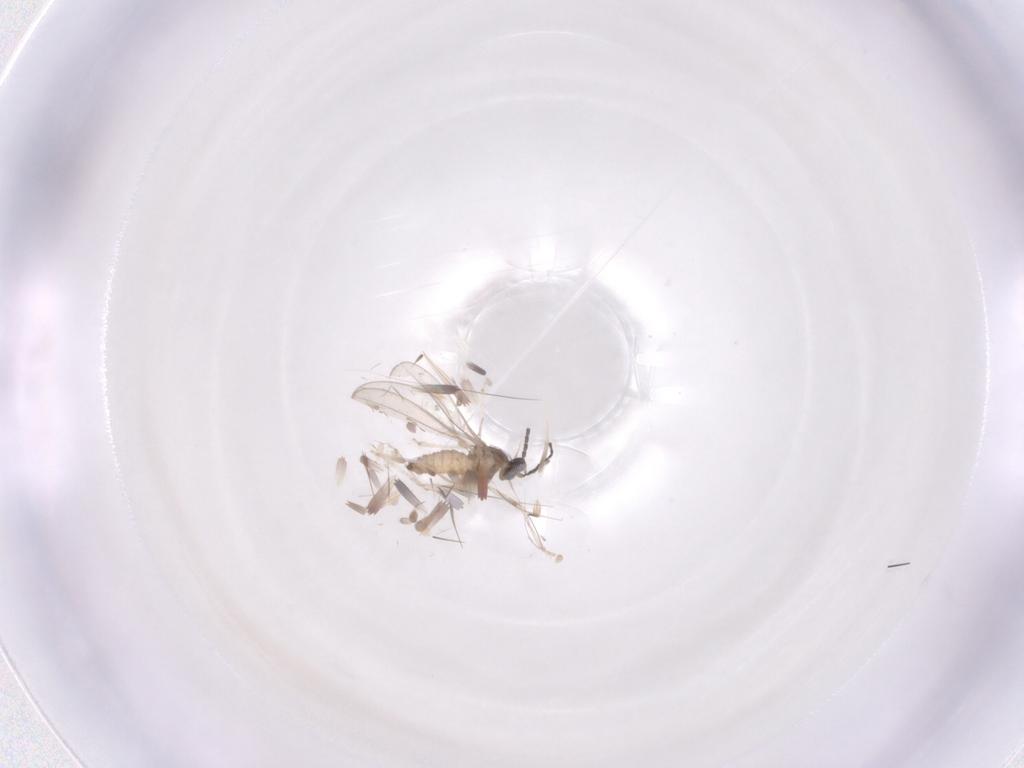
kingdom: Animalia
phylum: Arthropoda
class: Insecta
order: Diptera
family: Cecidomyiidae
